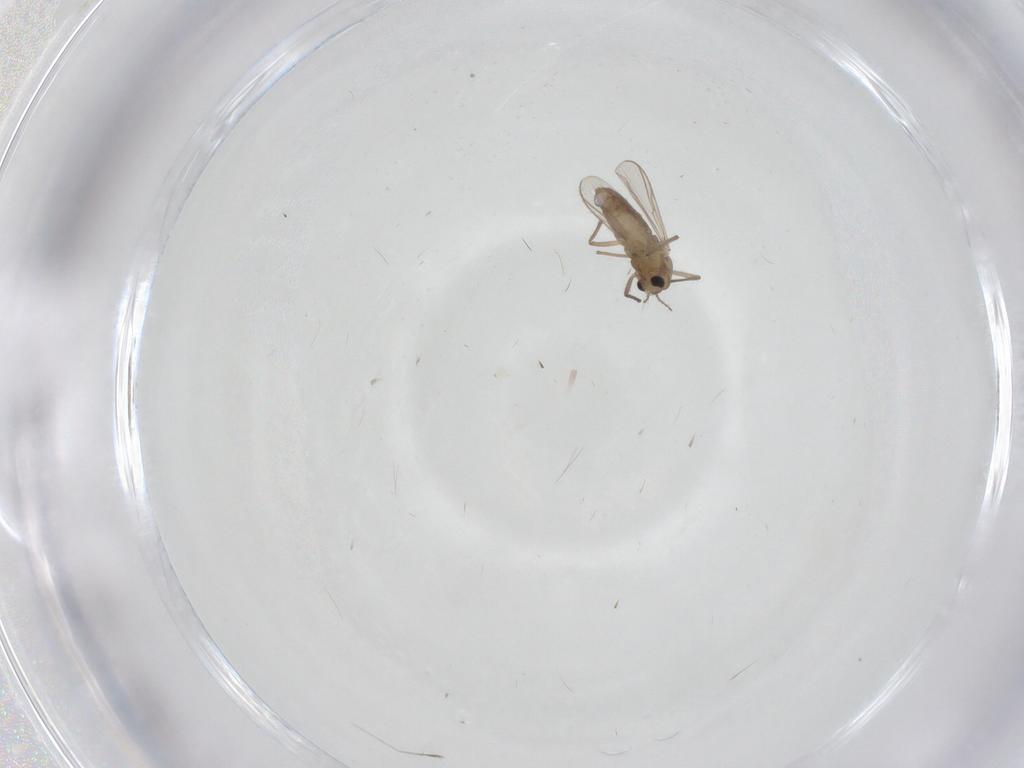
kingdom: Animalia
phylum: Arthropoda
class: Insecta
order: Diptera
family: Chironomidae
